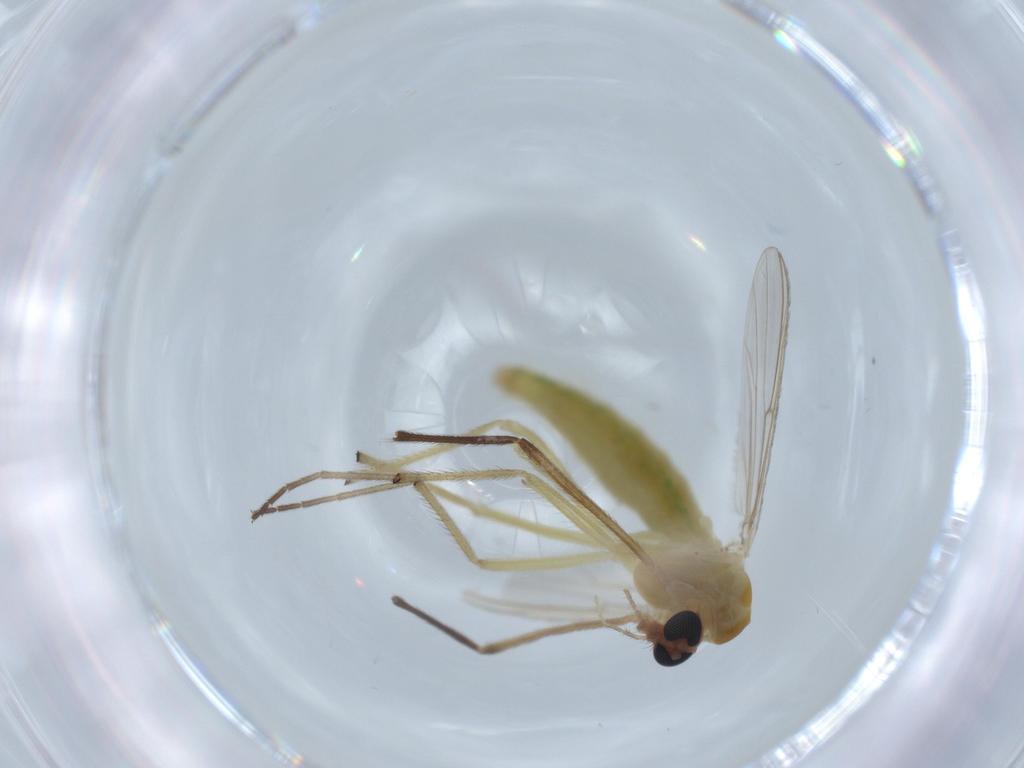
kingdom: Animalia
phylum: Arthropoda
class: Insecta
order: Diptera
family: Chironomidae
